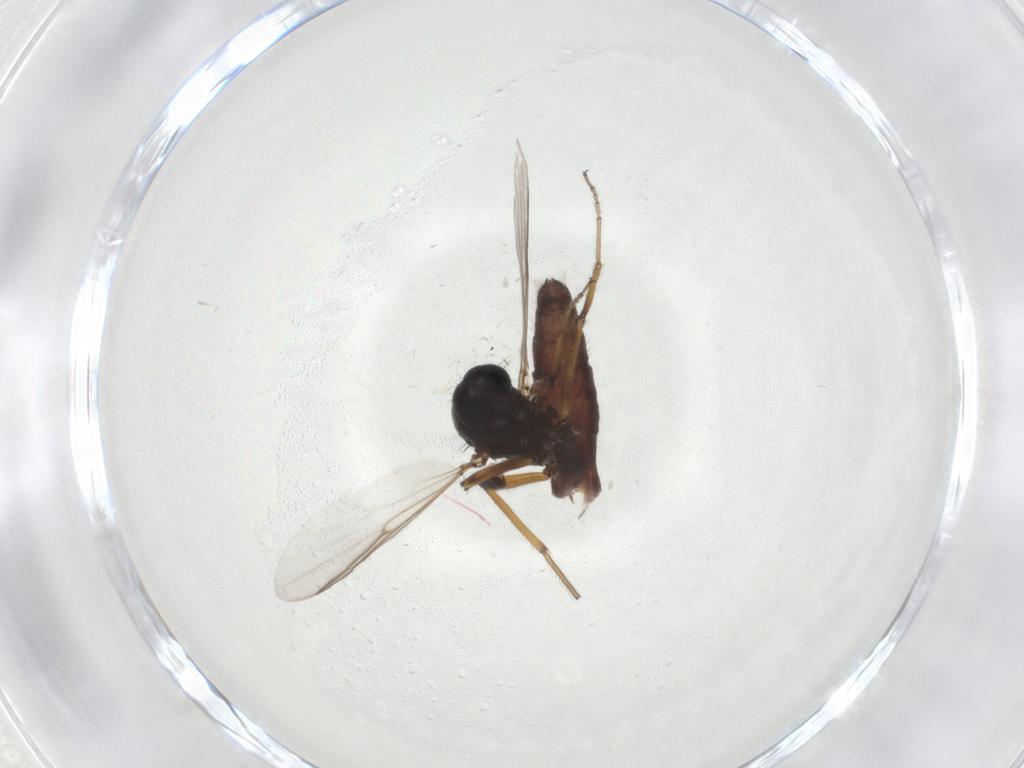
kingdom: Animalia
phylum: Arthropoda
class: Insecta
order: Diptera
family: Ceratopogonidae
